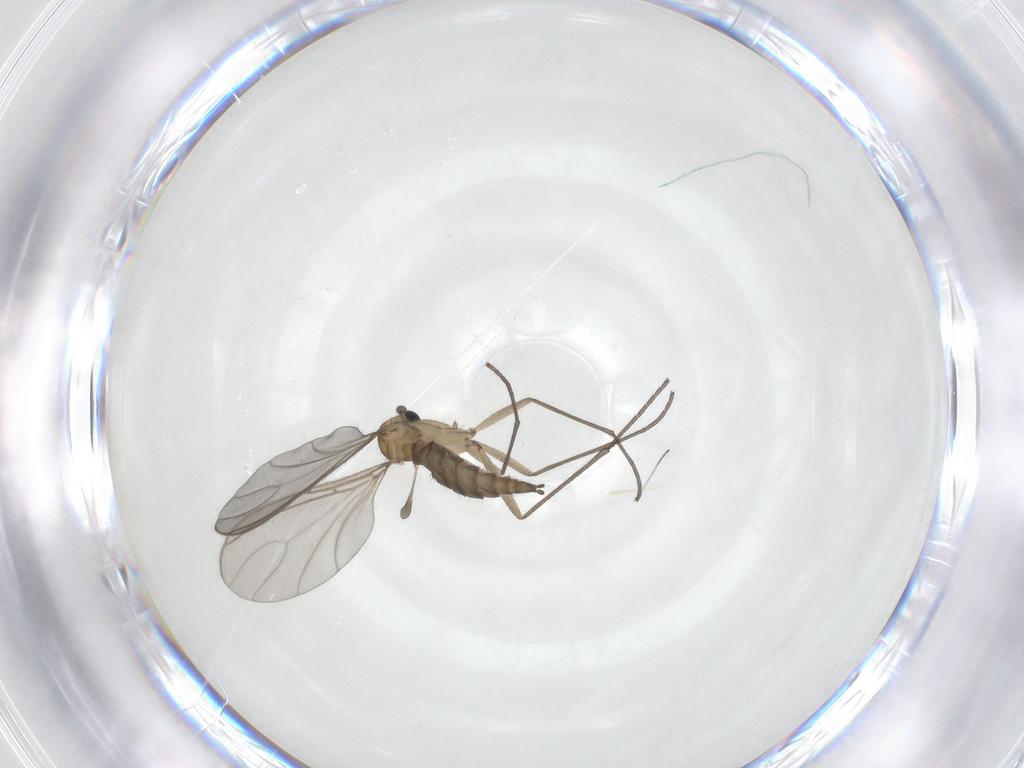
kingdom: Animalia
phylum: Arthropoda
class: Insecta
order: Diptera
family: Sciaridae
